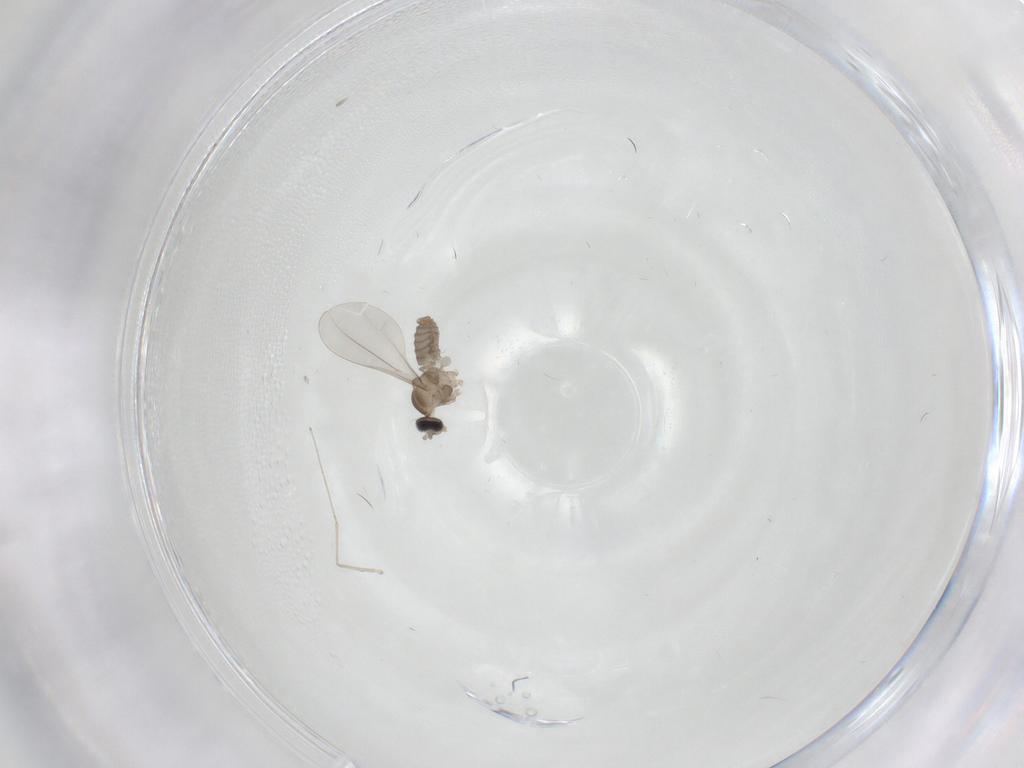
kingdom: Animalia
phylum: Arthropoda
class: Insecta
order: Diptera
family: Cecidomyiidae
